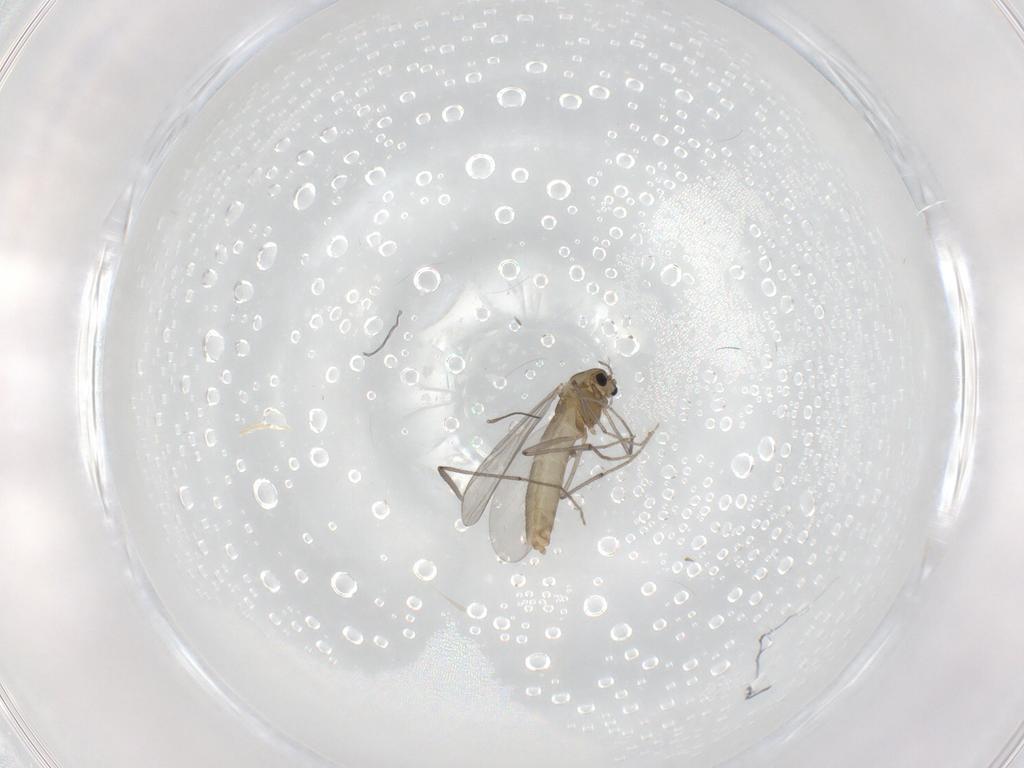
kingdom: Animalia
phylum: Arthropoda
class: Insecta
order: Diptera
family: Chironomidae
